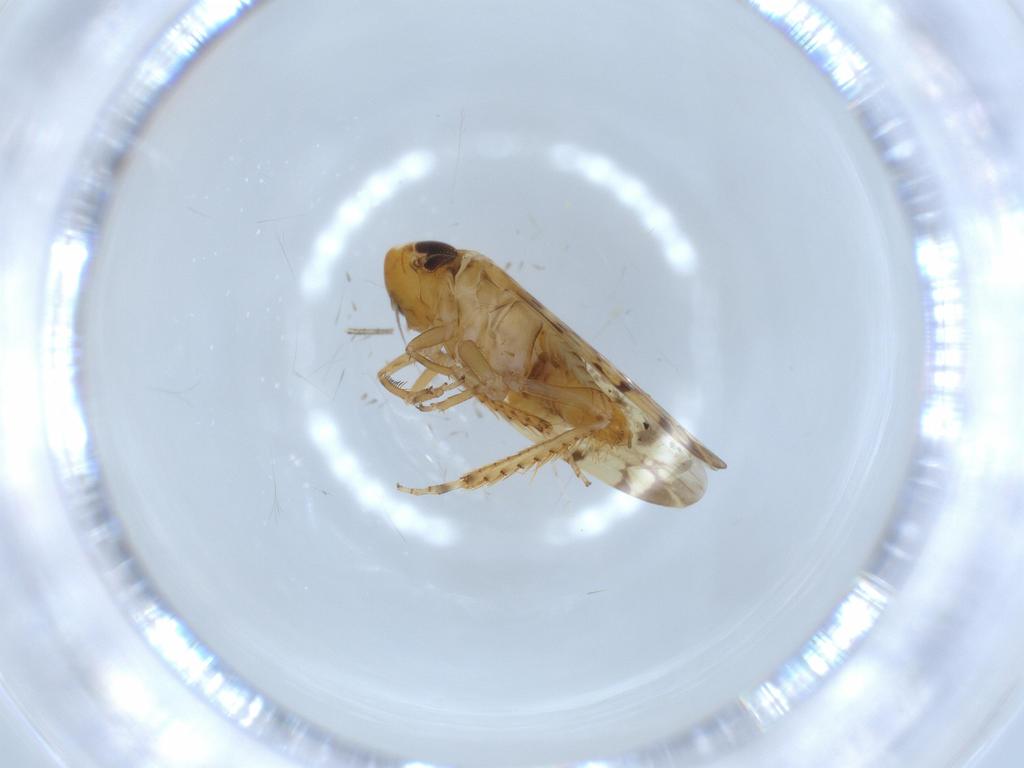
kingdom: Animalia
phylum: Arthropoda
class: Insecta
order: Hemiptera
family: Cicadellidae
